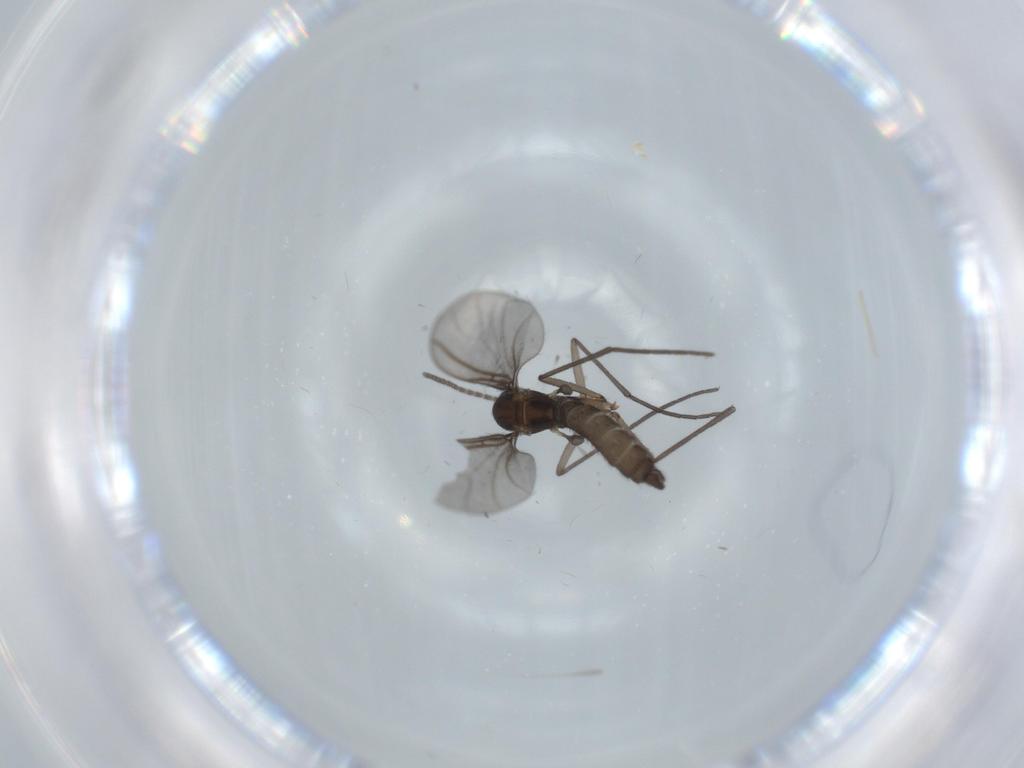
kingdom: Animalia
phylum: Arthropoda
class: Insecta
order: Diptera
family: Sciaridae
